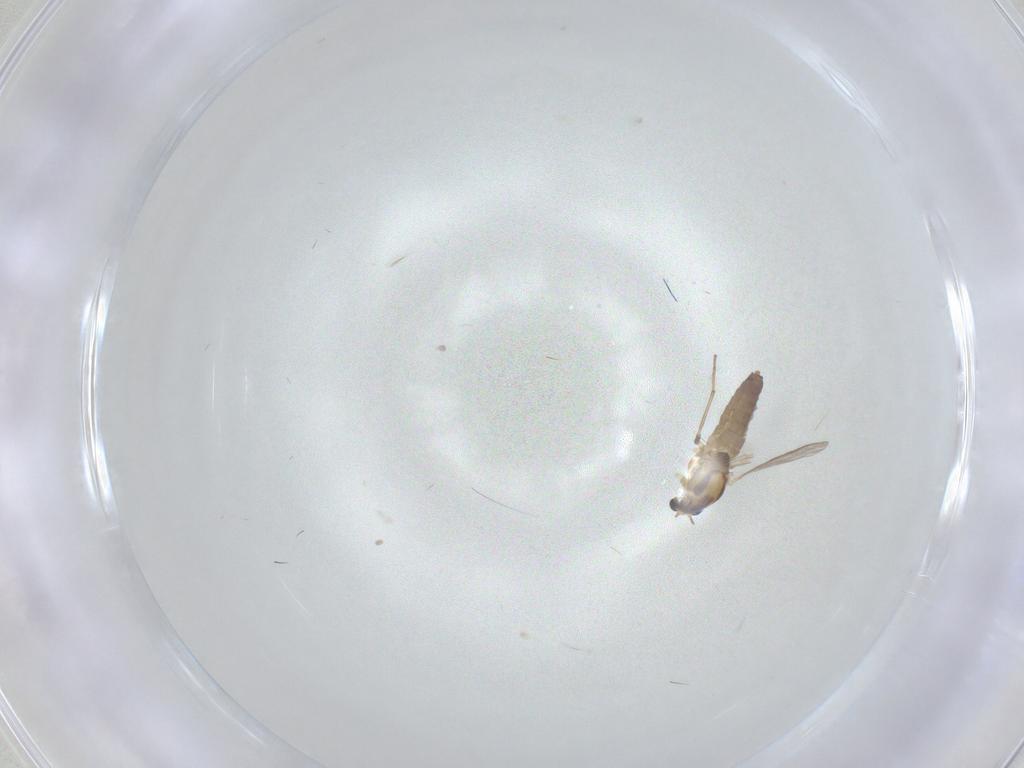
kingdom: Animalia
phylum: Arthropoda
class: Insecta
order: Diptera
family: Chironomidae
